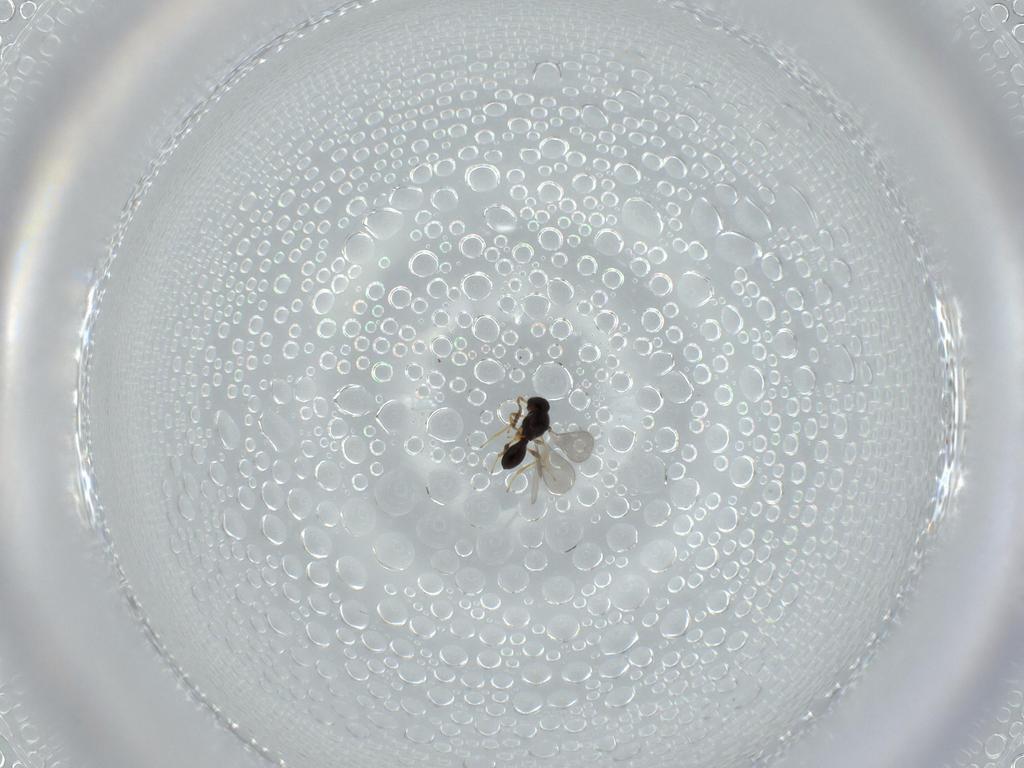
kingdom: Animalia
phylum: Arthropoda
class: Insecta
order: Hymenoptera
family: Platygastridae
